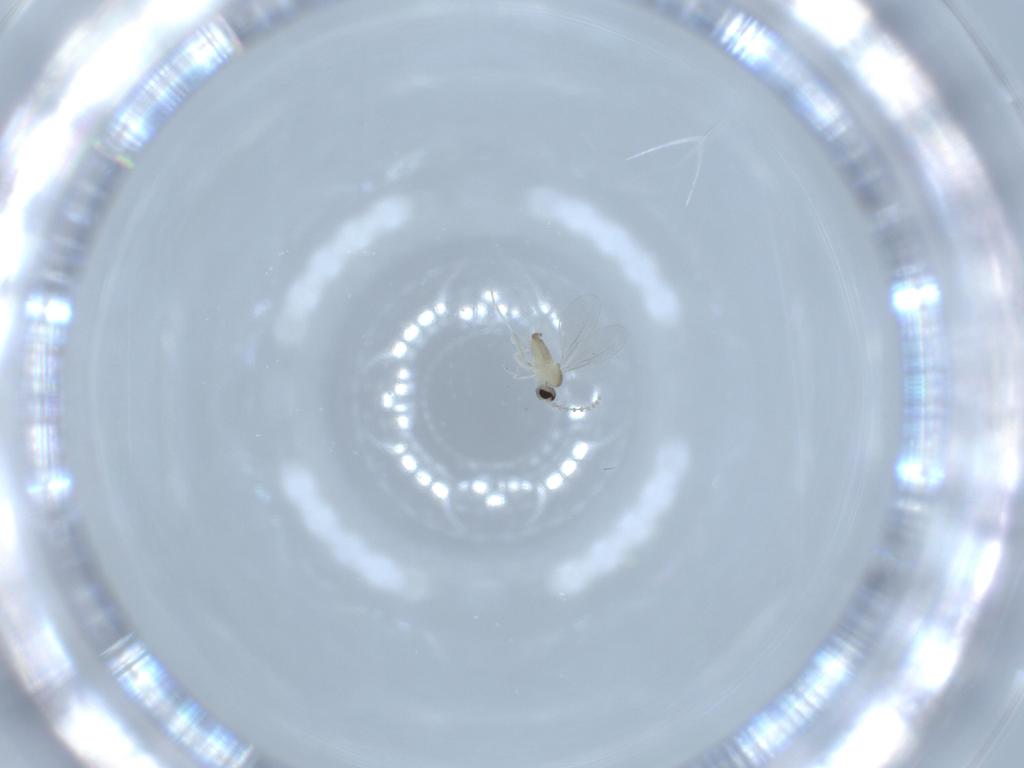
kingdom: Animalia
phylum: Arthropoda
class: Insecta
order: Diptera
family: Cecidomyiidae
